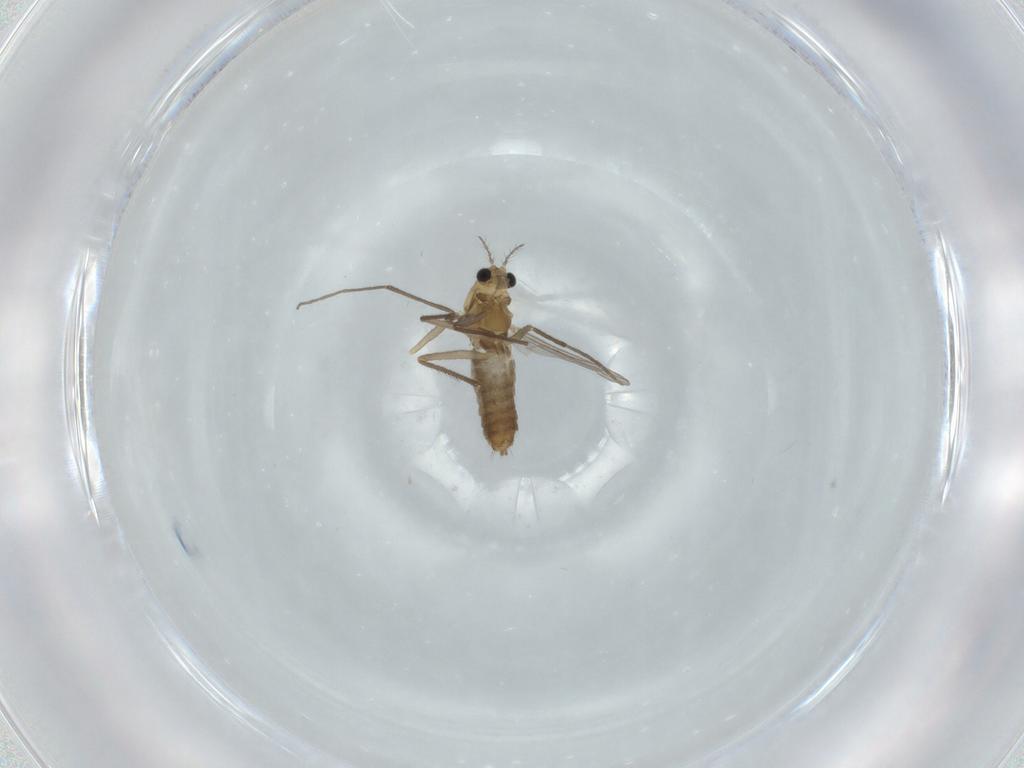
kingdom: Animalia
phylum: Arthropoda
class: Insecta
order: Diptera
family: Chironomidae
